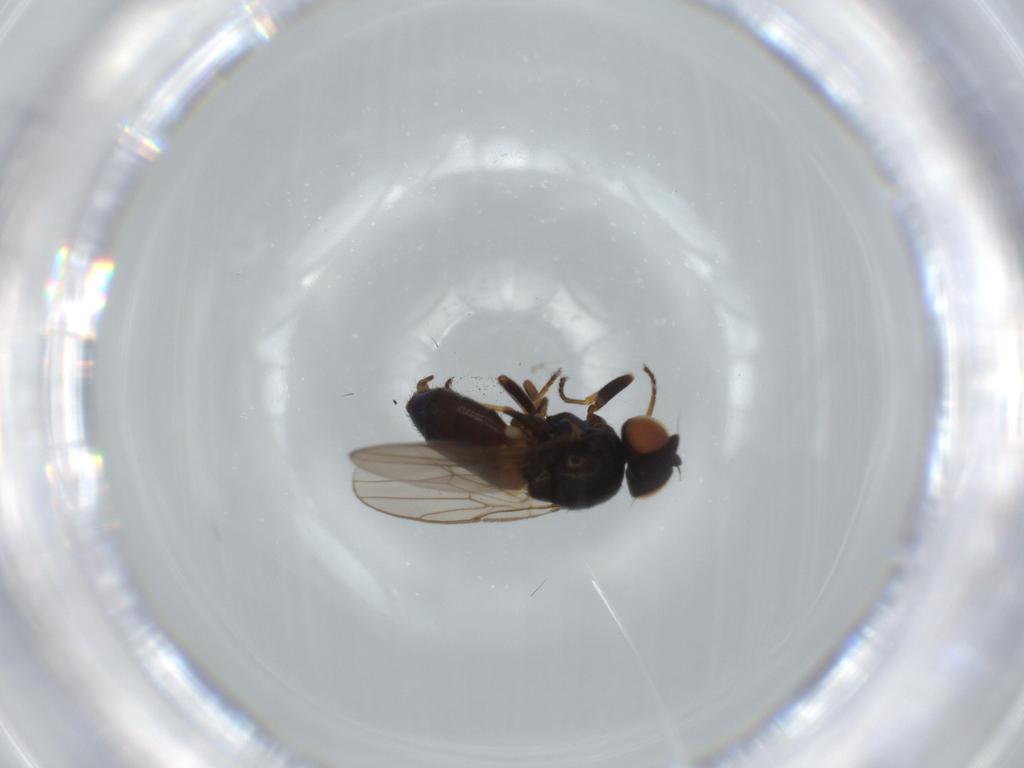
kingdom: Animalia
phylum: Arthropoda
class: Insecta
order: Diptera
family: Chloropidae
